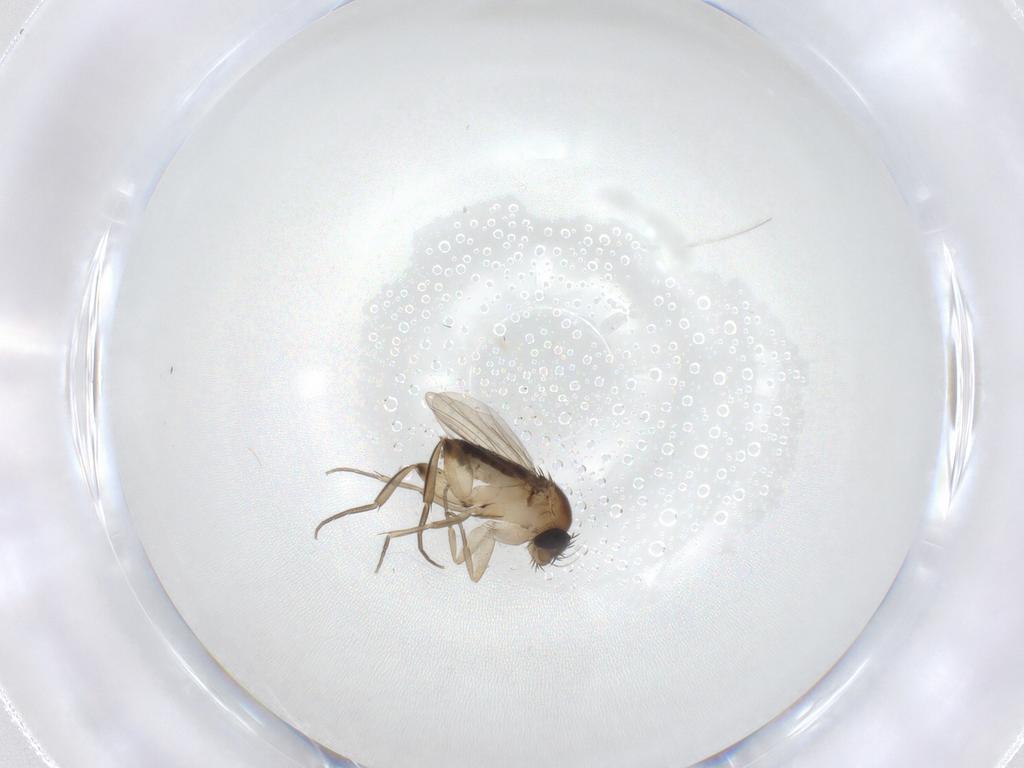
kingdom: Animalia
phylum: Arthropoda
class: Insecta
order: Diptera
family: Phoridae
